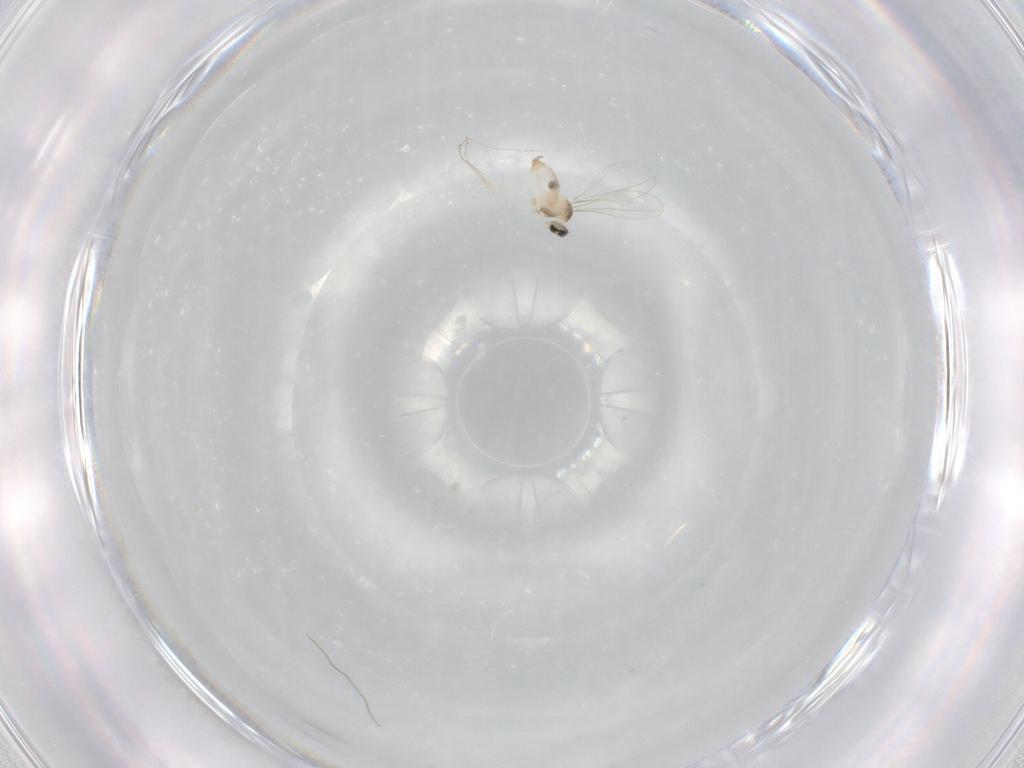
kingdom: Animalia
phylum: Arthropoda
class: Insecta
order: Diptera
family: Cecidomyiidae
